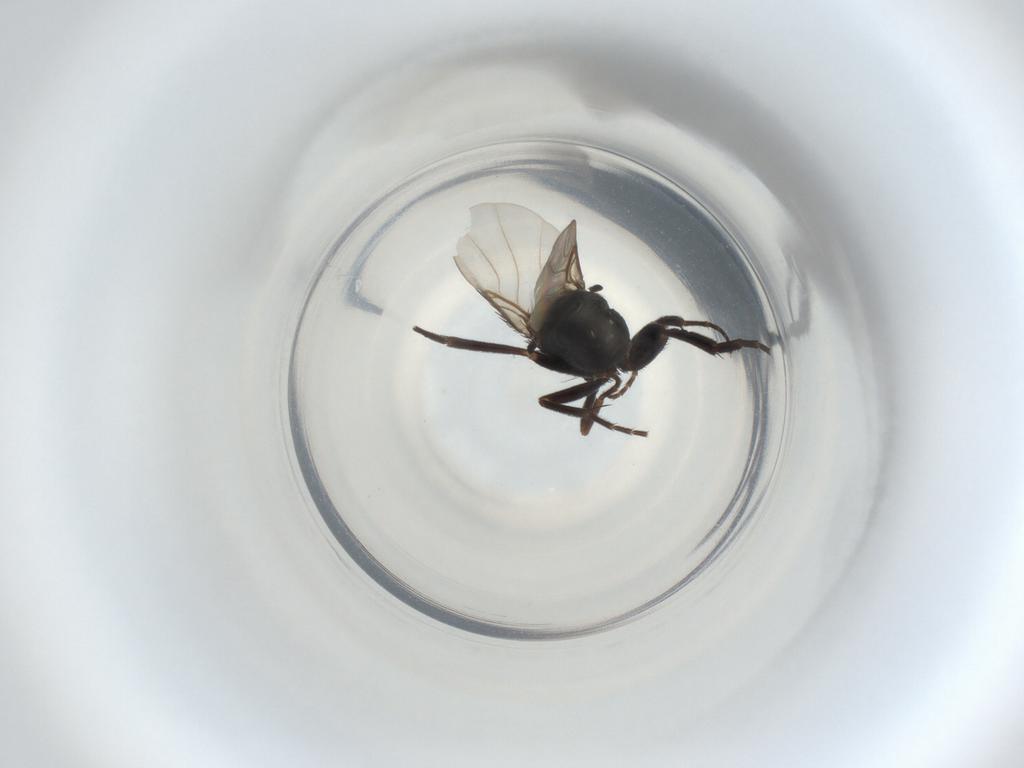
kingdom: Animalia
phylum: Arthropoda
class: Insecta
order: Diptera
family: Phoridae
